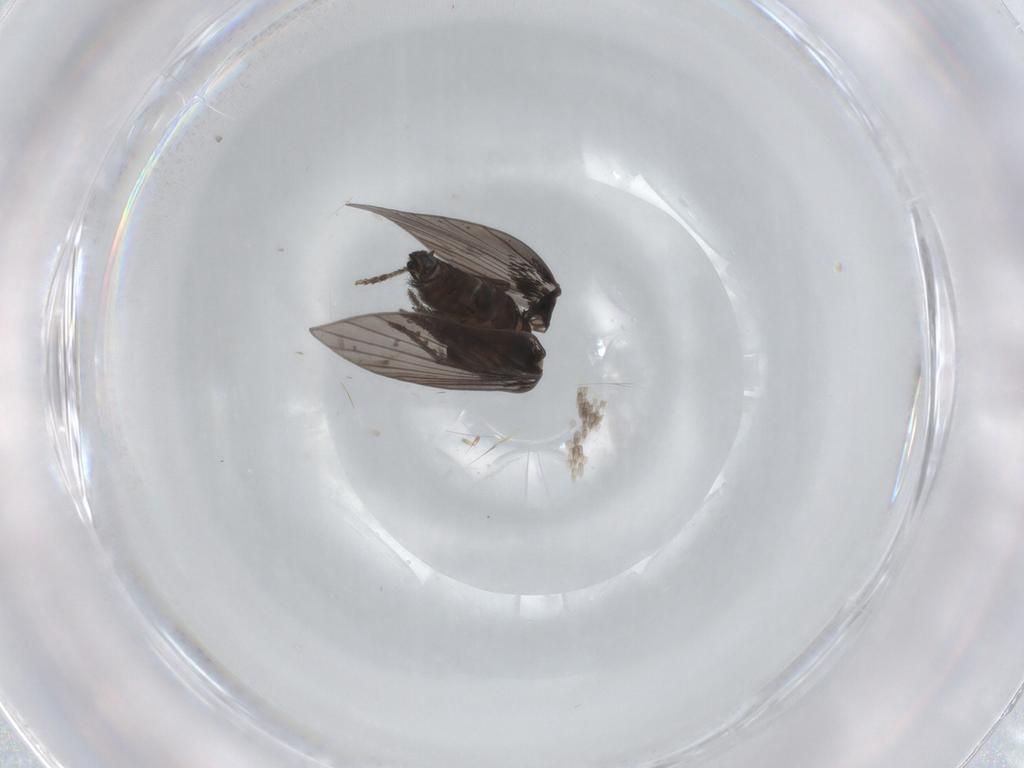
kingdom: Animalia
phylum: Arthropoda
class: Insecta
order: Diptera
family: Psychodidae
